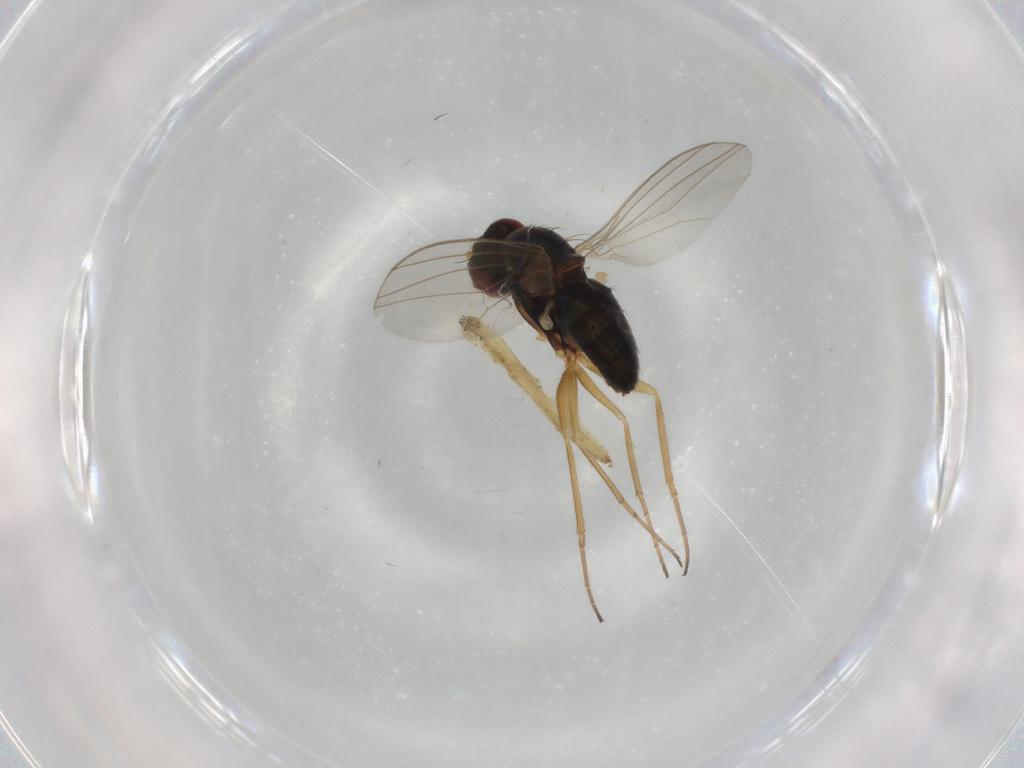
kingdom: Animalia
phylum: Arthropoda
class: Insecta
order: Diptera
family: Dolichopodidae
